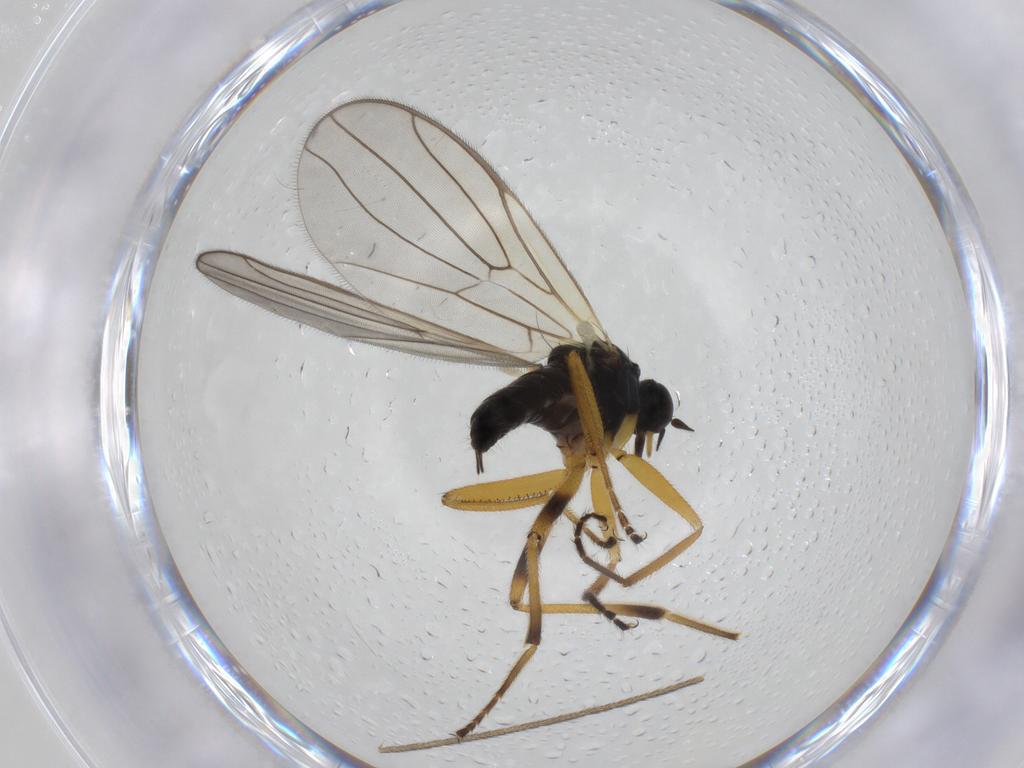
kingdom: Animalia
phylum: Arthropoda
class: Insecta
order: Diptera
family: Hybotidae
